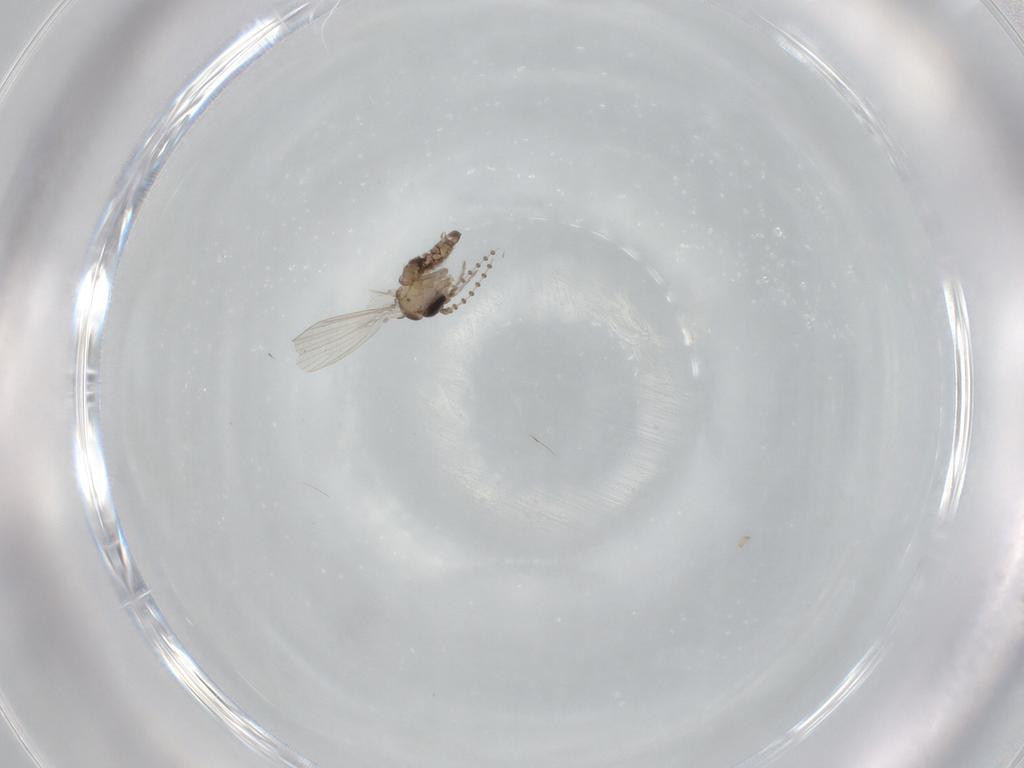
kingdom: Animalia
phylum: Arthropoda
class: Insecta
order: Diptera
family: Psychodidae
